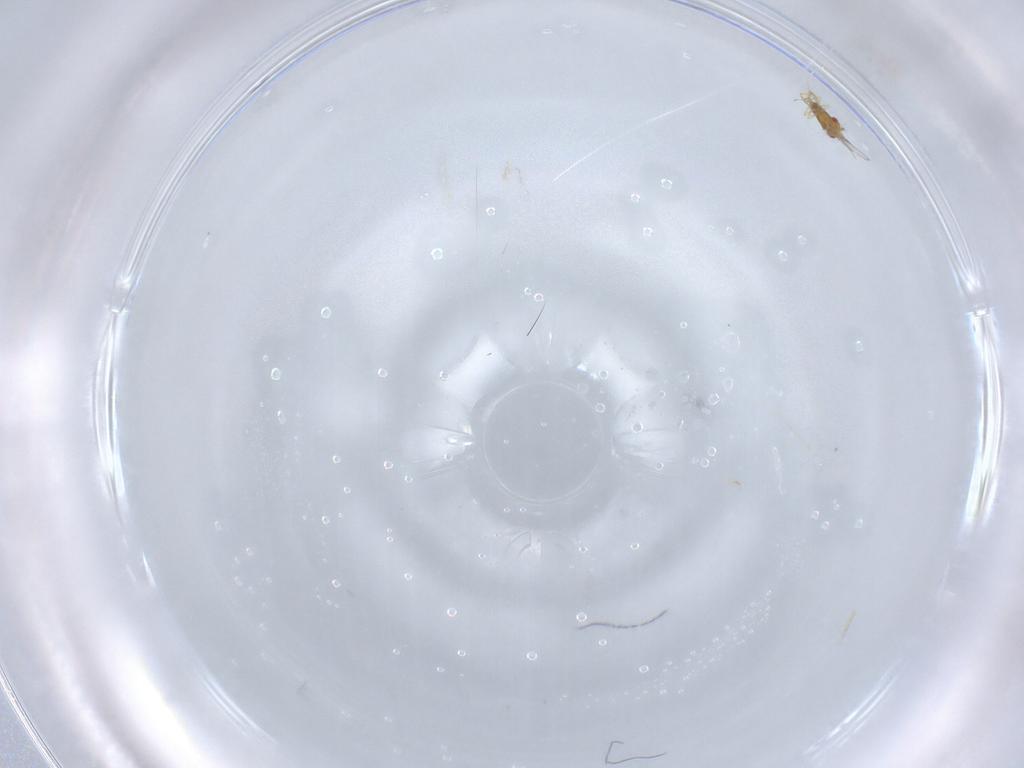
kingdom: Animalia
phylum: Arthropoda
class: Insecta
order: Hymenoptera
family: Trichogrammatidae
